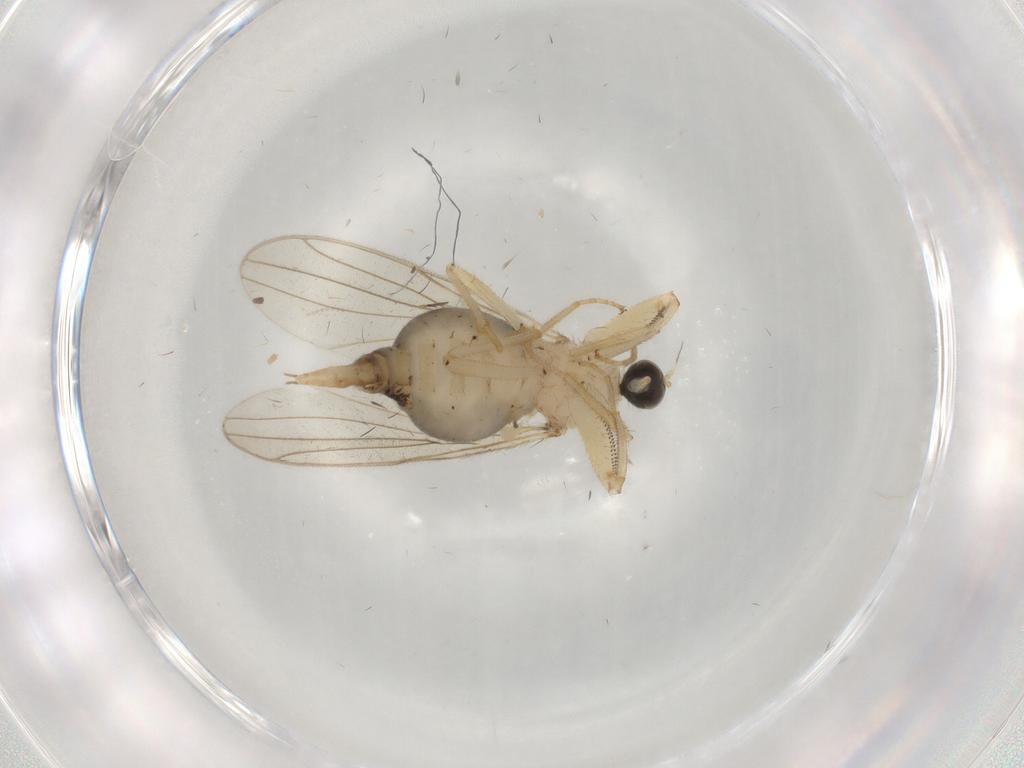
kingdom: Animalia
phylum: Arthropoda
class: Insecta
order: Diptera
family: Hybotidae
